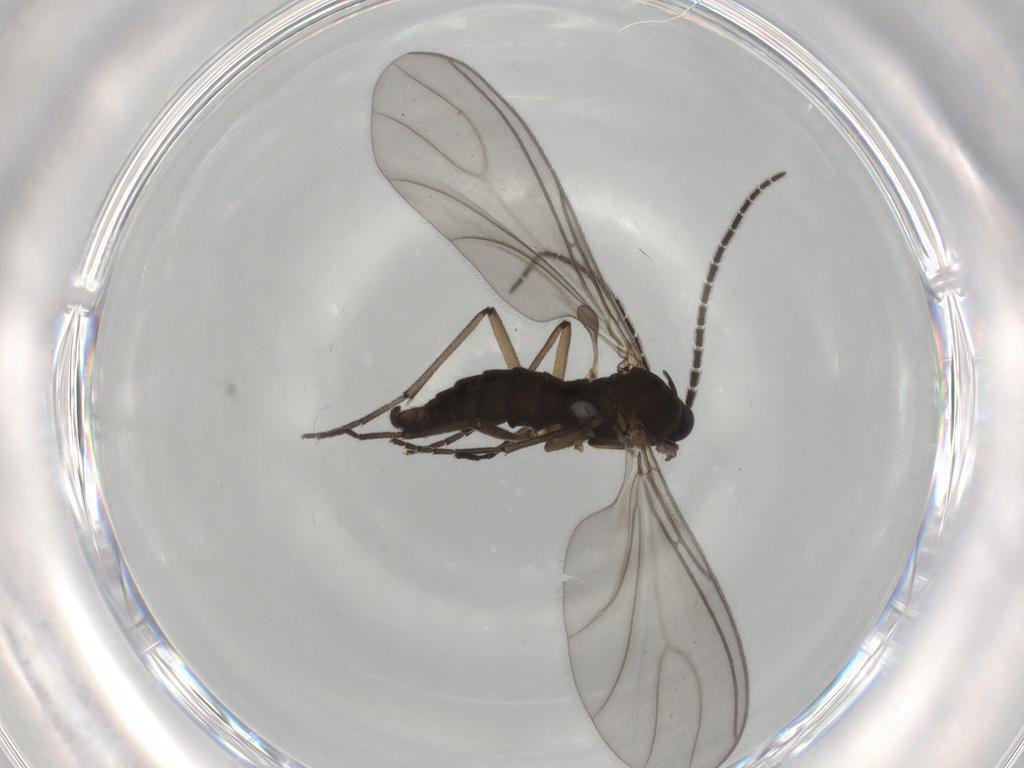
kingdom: Animalia
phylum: Arthropoda
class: Insecta
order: Diptera
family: Sciaridae
